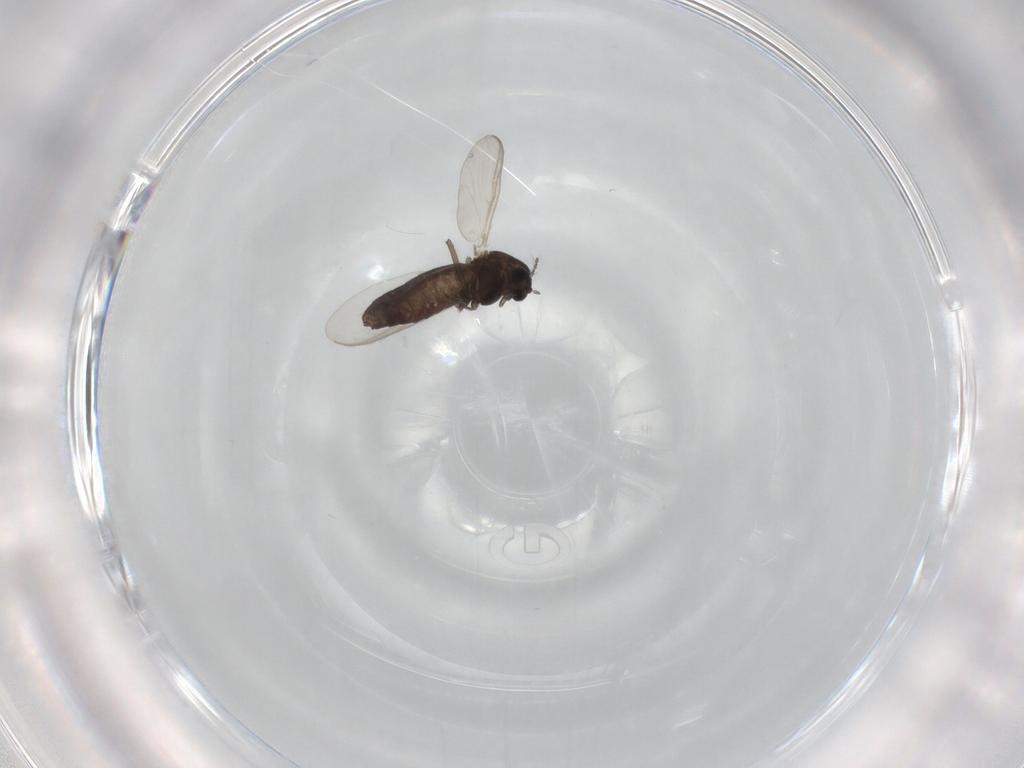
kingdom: Animalia
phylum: Arthropoda
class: Insecta
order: Diptera
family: Chironomidae
